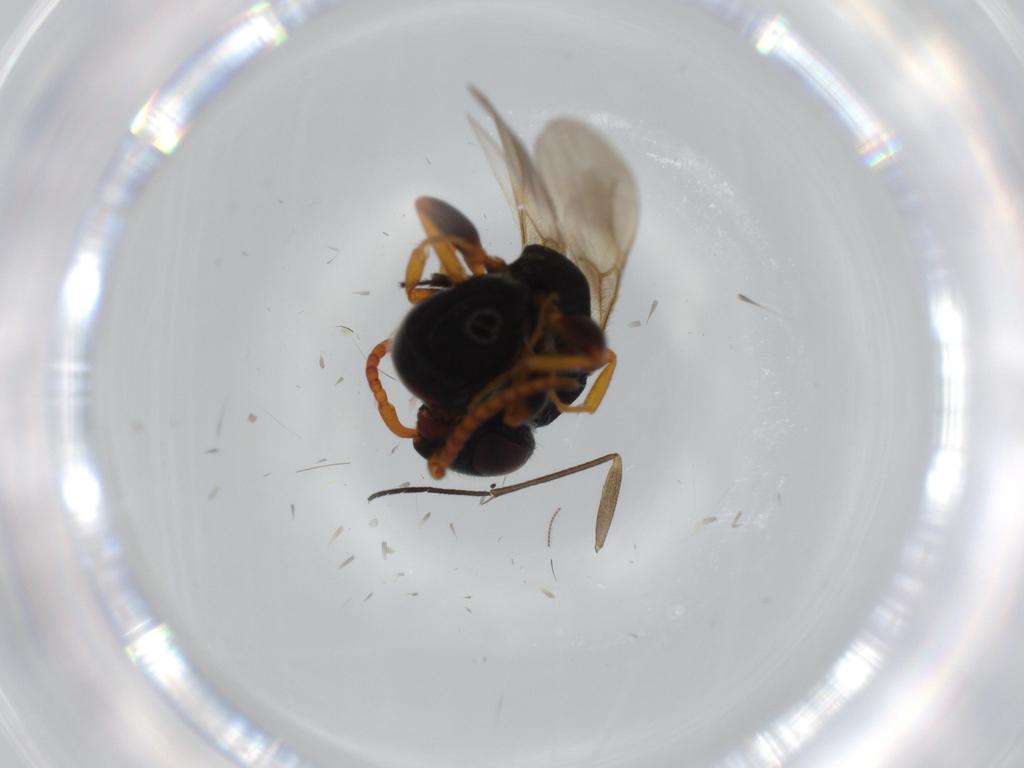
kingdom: Animalia
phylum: Arthropoda
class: Insecta
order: Hymenoptera
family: Bethylidae
